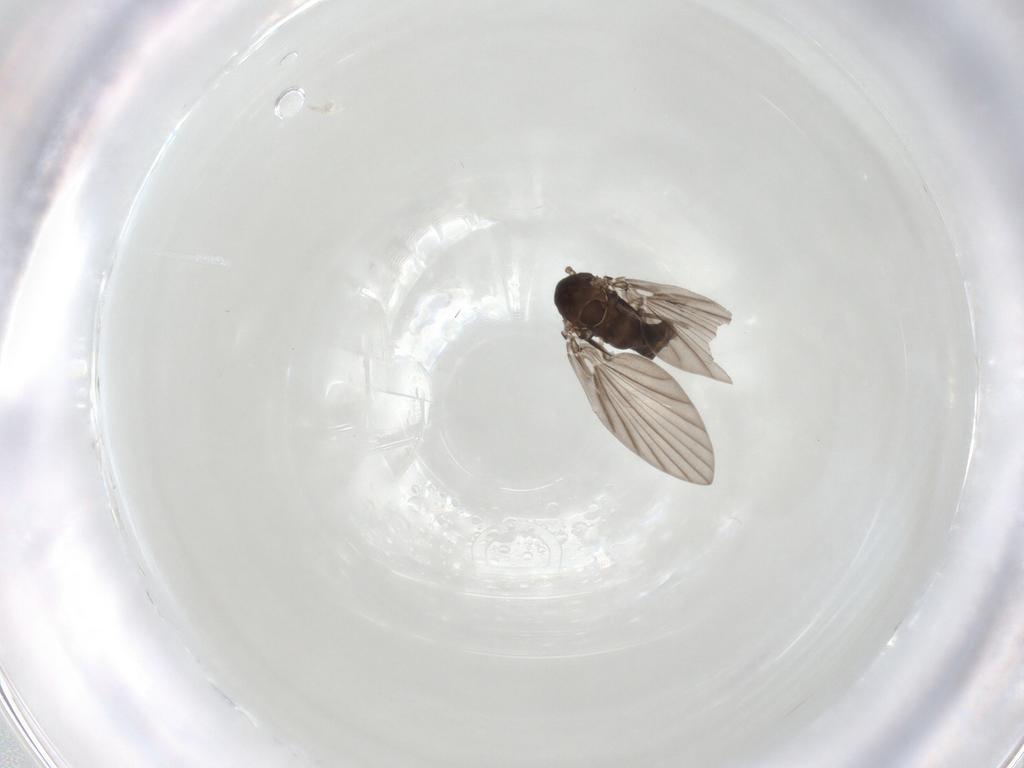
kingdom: Animalia
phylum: Arthropoda
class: Insecta
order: Diptera
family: Psychodidae
